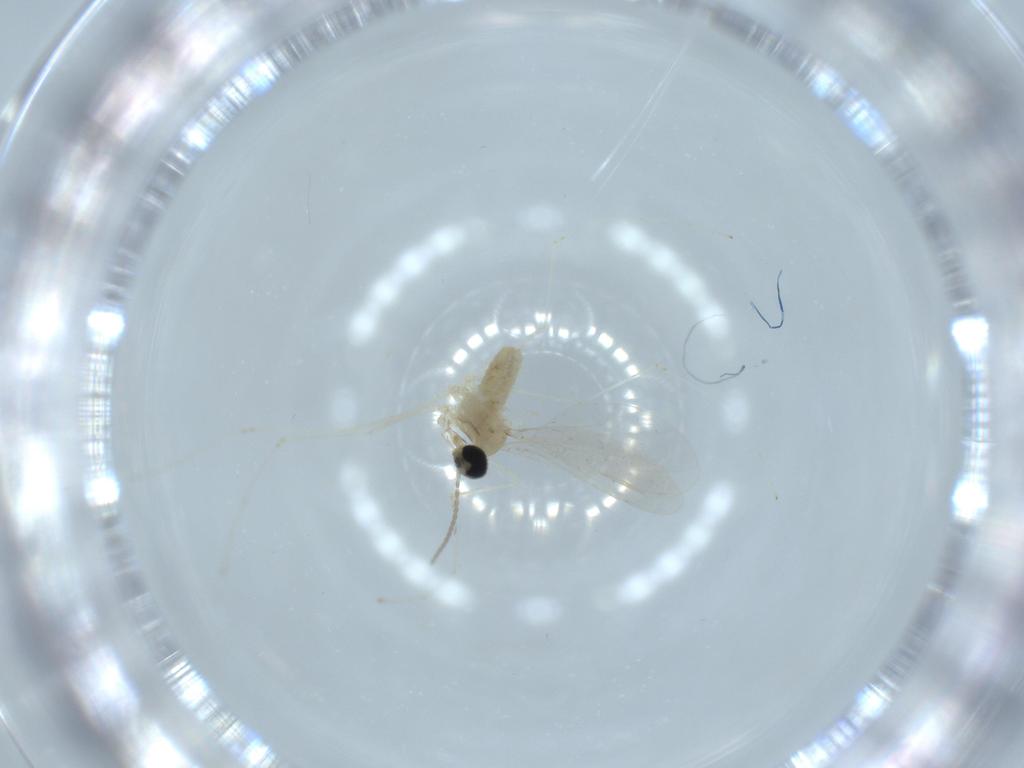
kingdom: Animalia
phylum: Arthropoda
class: Insecta
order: Diptera
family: Cecidomyiidae
